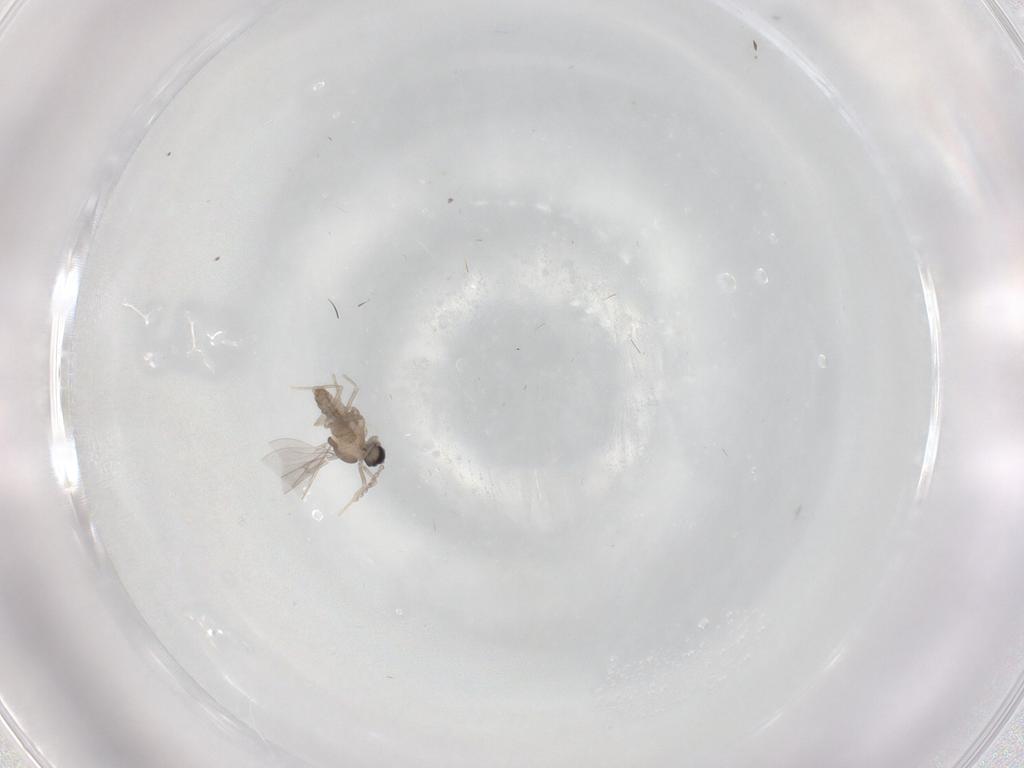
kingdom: Animalia
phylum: Arthropoda
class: Insecta
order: Diptera
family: Cecidomyiidae
